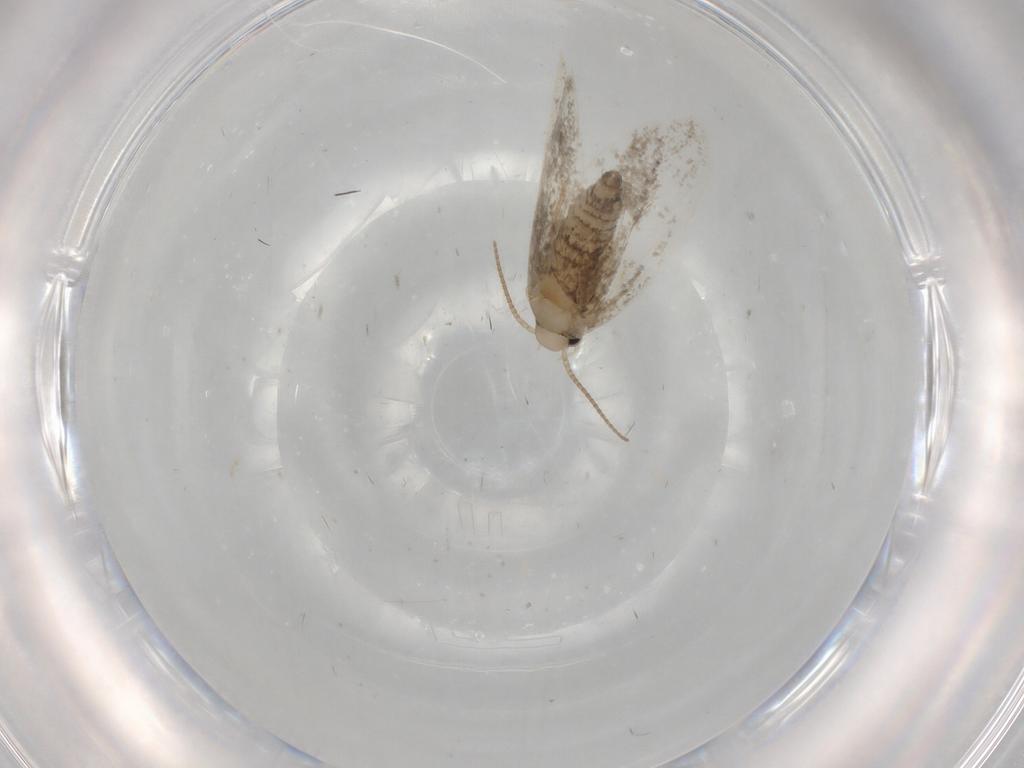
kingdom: Animalia
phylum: Arthropoda
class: Insecta
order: Lepidoptera
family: Psychidae
